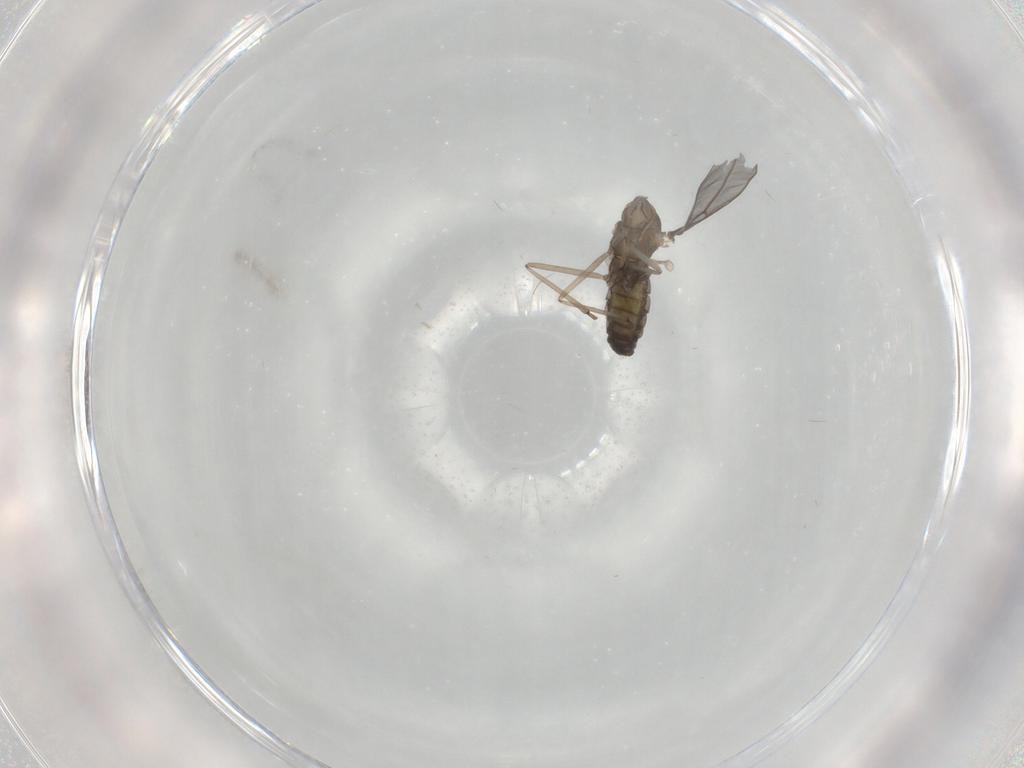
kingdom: Animalia
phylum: Arthropoda
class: Insecta
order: Diptera
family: Cecidomyiidae
